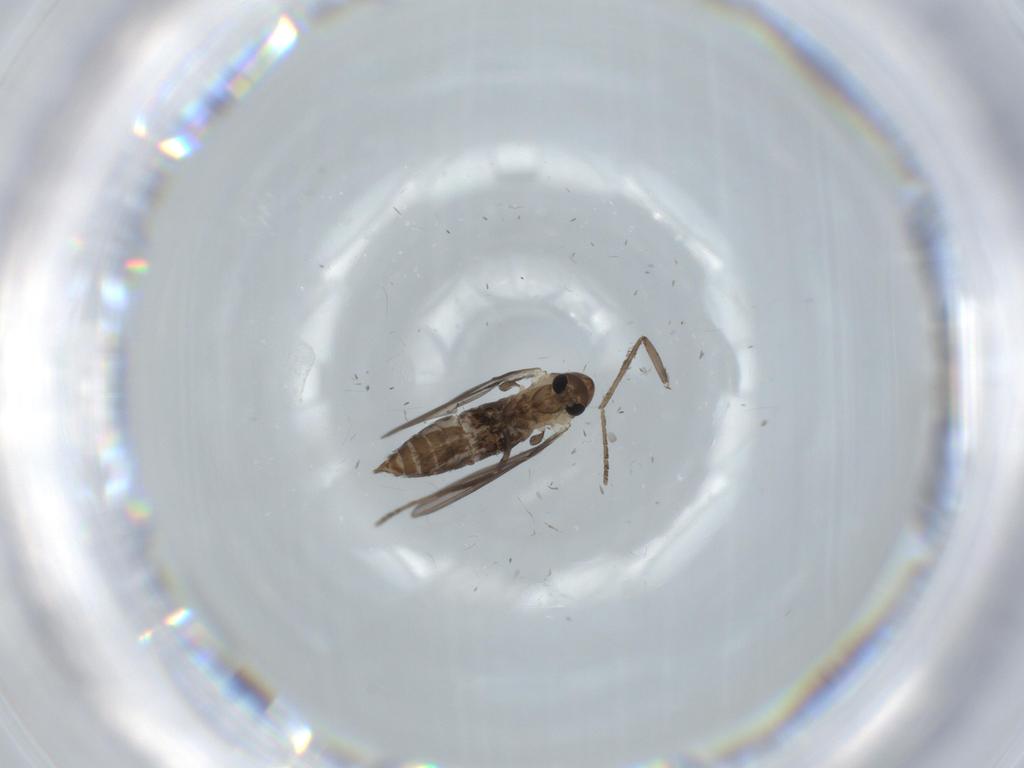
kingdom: Animalia
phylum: Arthropoda
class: Insecta
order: Diptera
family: Psychodidae
